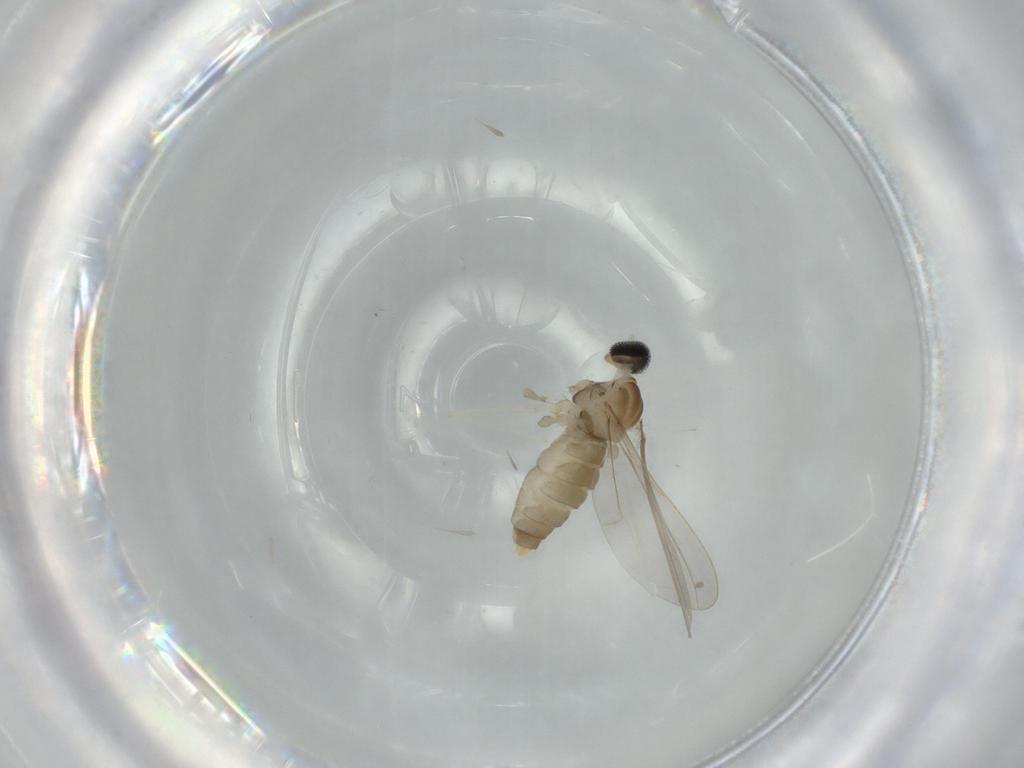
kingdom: Animalia
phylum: Arthropoda
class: Insecta
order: Diptera
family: Cecidomyiidae
